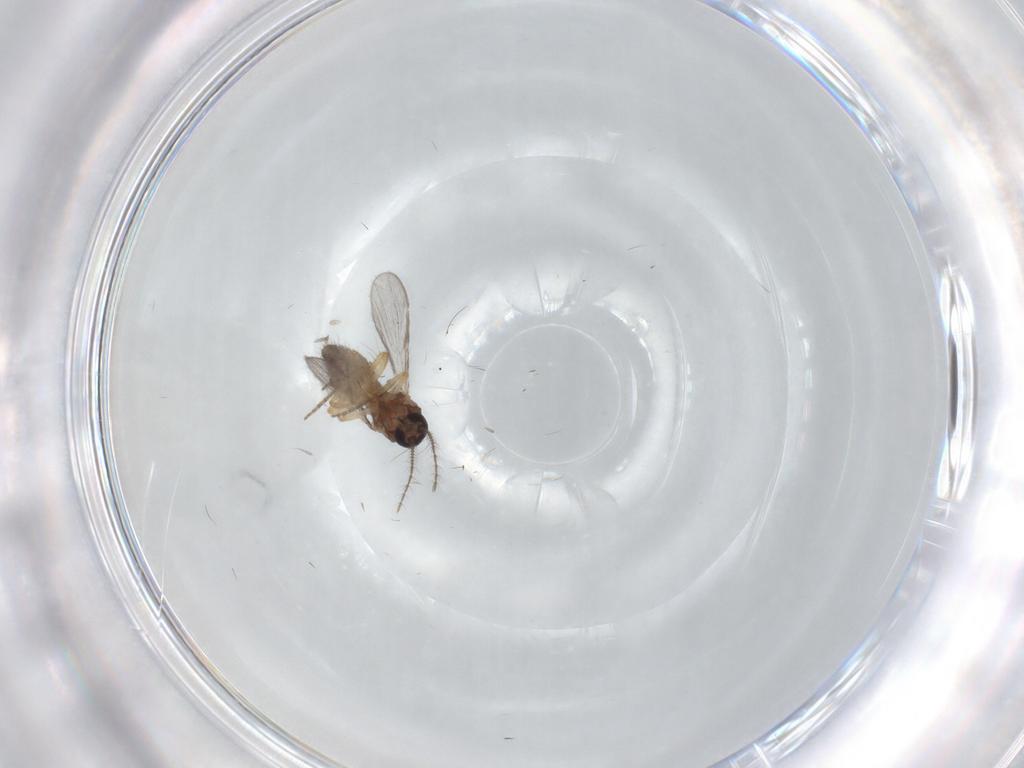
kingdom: Animalia
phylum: Arthropoda
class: Insecta
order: Diptera
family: Ceratopogonidae
